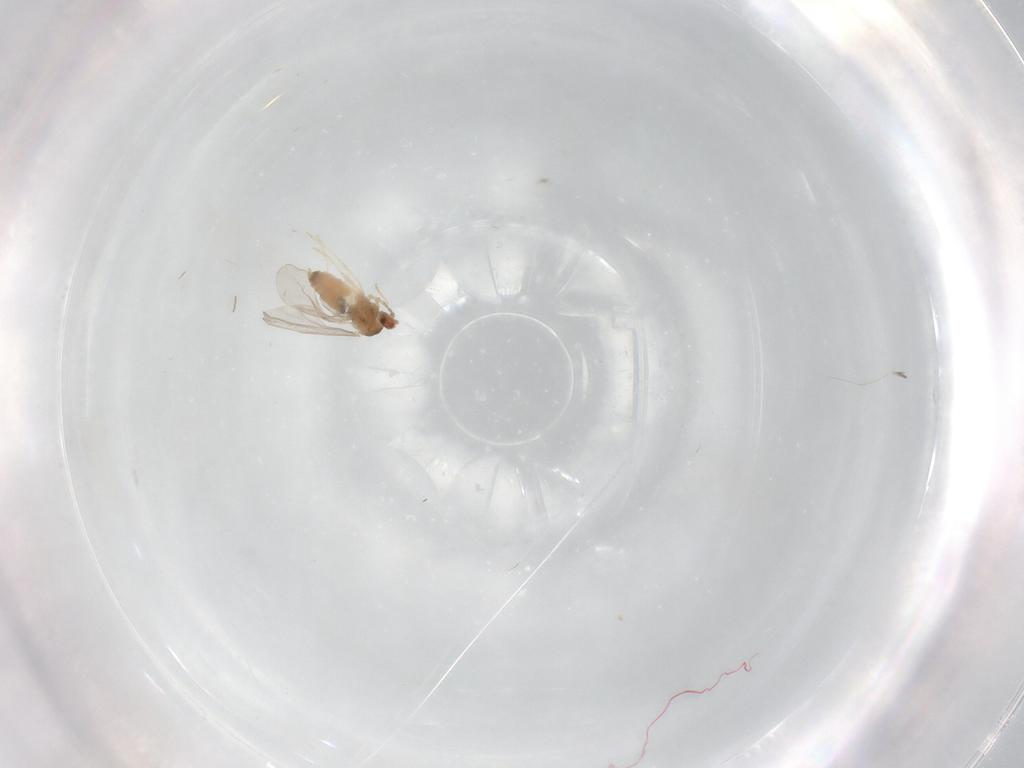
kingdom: Animalia
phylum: Arthropoda
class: Insecta
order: Diptera
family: Cecidomyiidae
